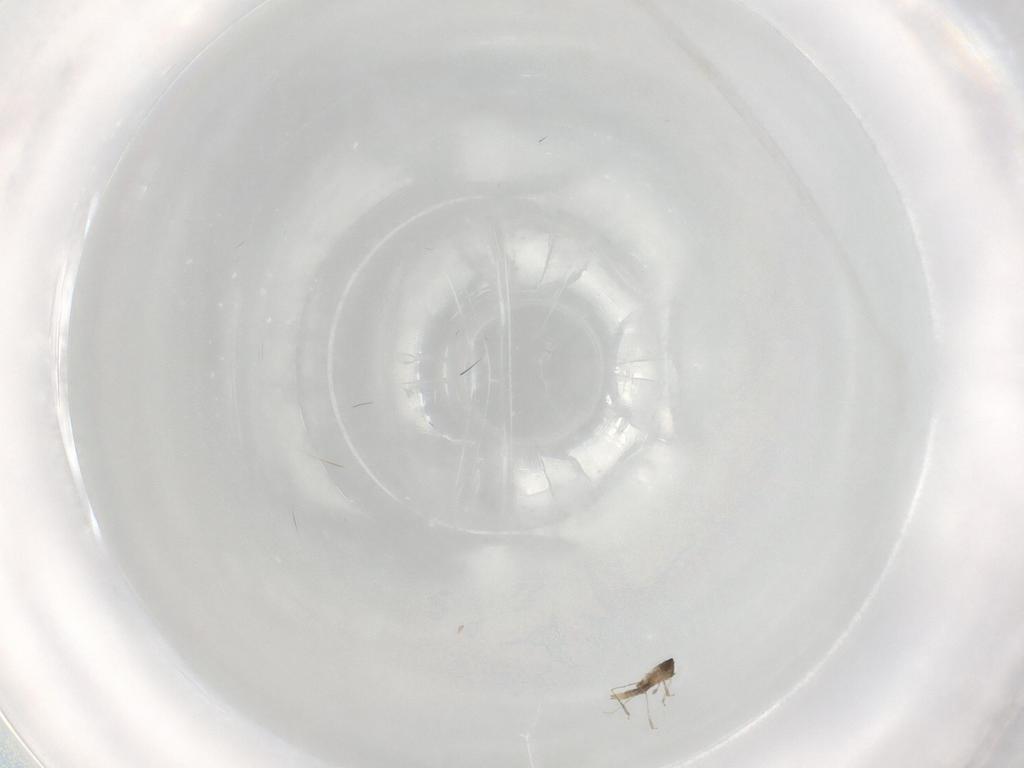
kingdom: Animalia
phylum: Arthropoda
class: Insecta
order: Diptera
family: Cecidomyiidae
